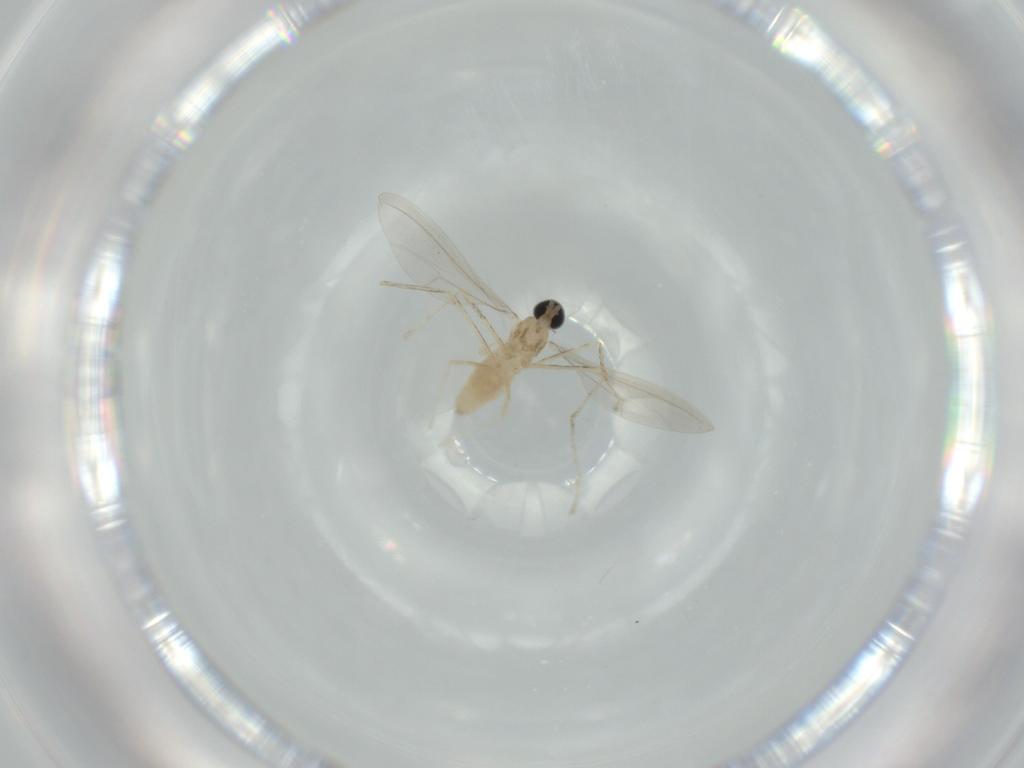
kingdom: Animalia
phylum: Arthropoda
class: Insecta
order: Diptera
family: Cecidomyiidae
